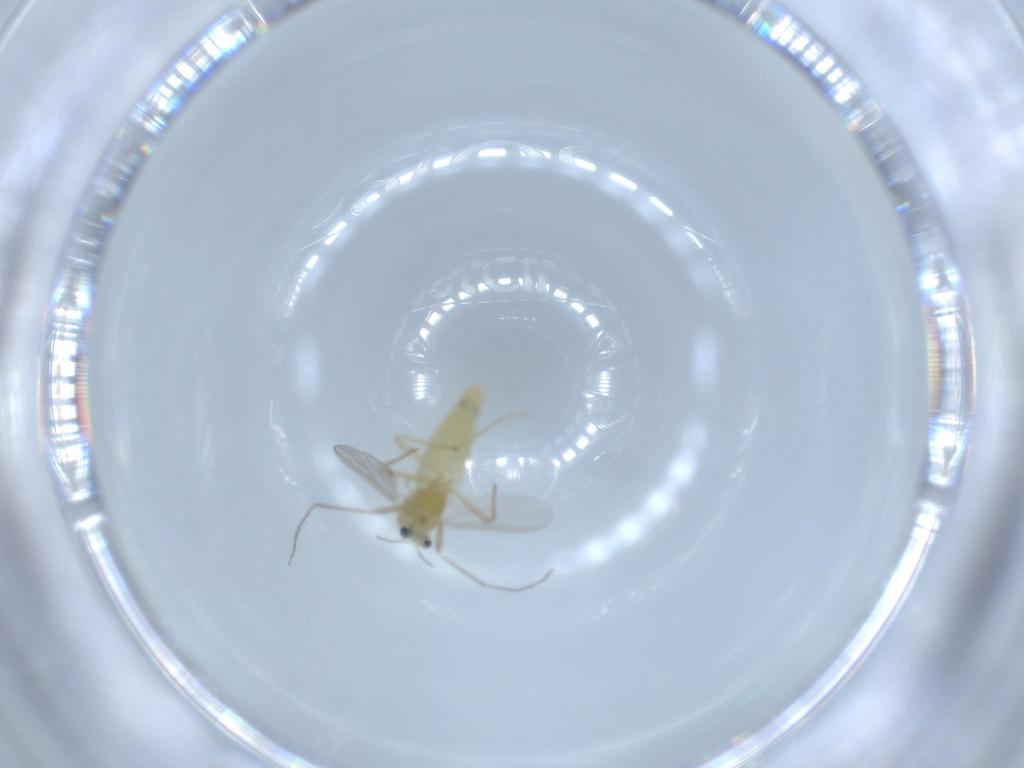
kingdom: Animalia
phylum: Arthropoda
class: Insecta
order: Diptera
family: Chironomidae
